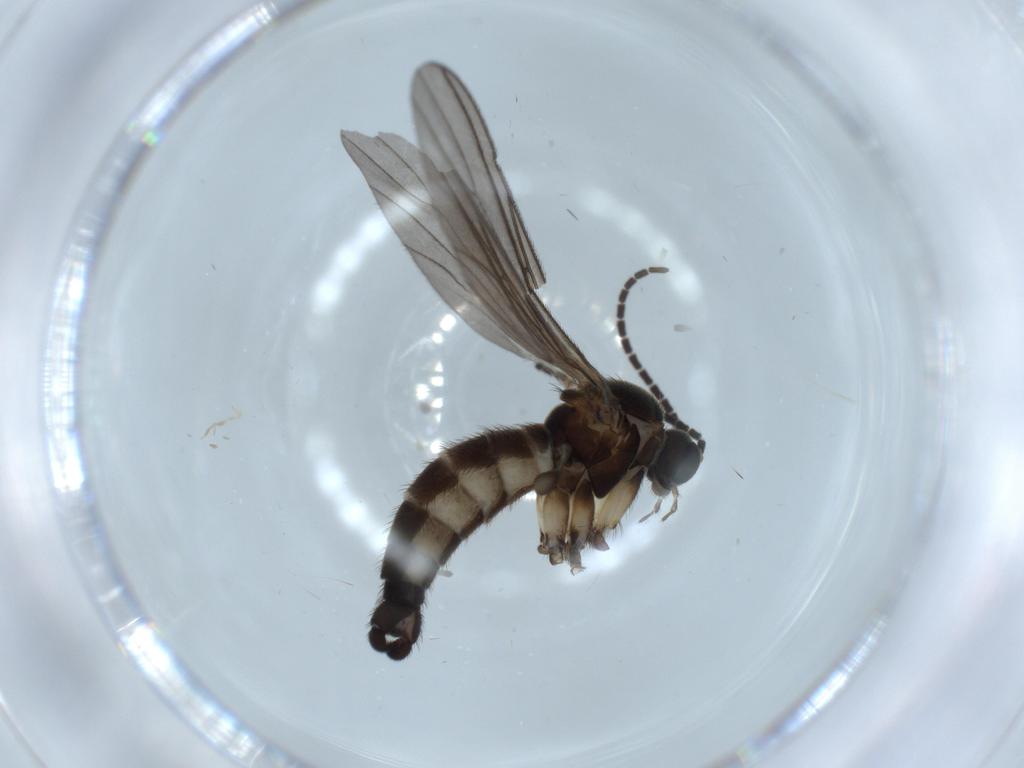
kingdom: Animalia
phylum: Arthropoda
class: Insecta
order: Diptera
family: Sciaridae
